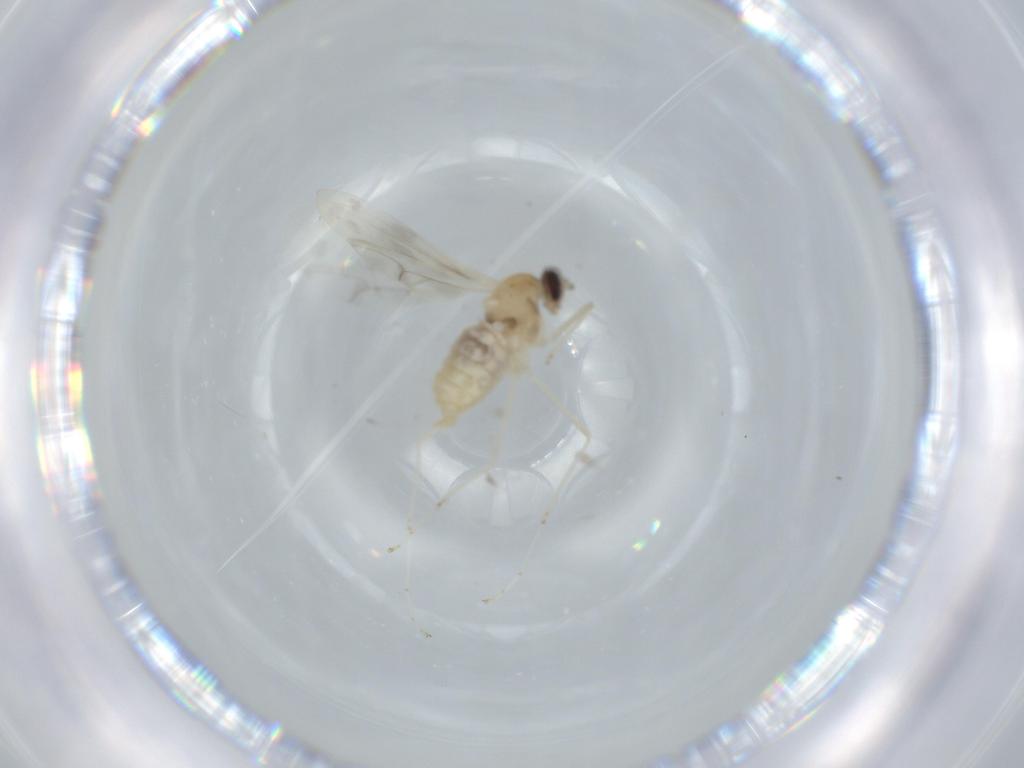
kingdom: Animalia
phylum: Arthropoda
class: Insecta
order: Diptera
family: Cecidomyiidae
